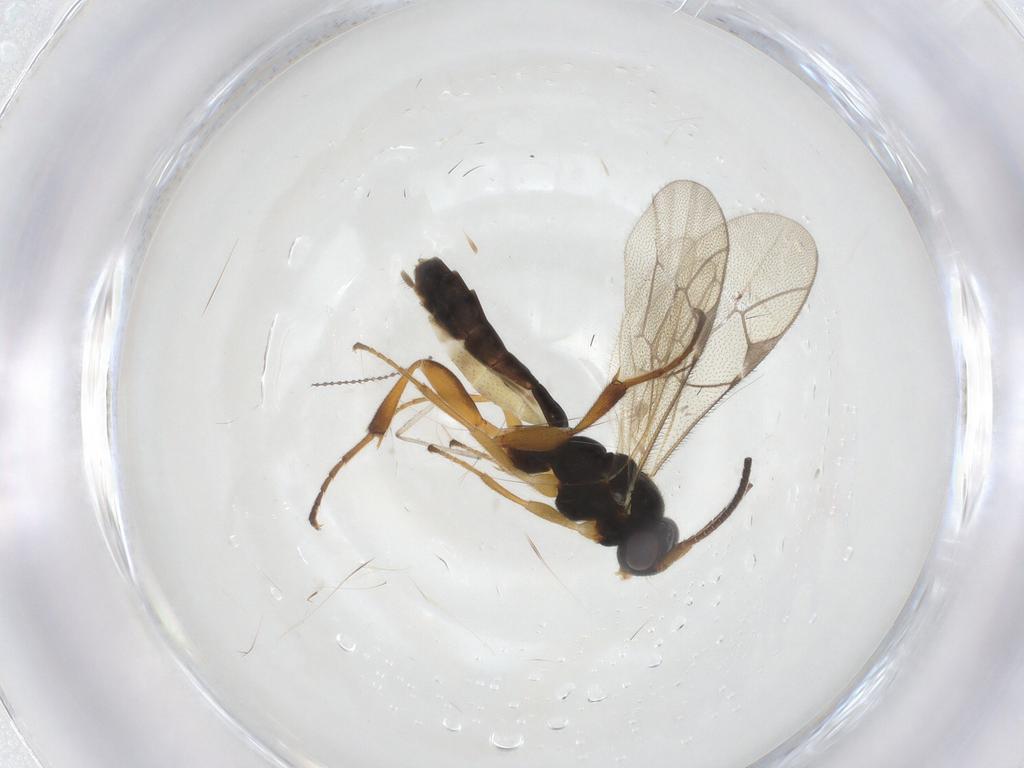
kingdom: Animalia
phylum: Arthropoda
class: Insecta
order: Hymenoptera
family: Ichneumonidae
